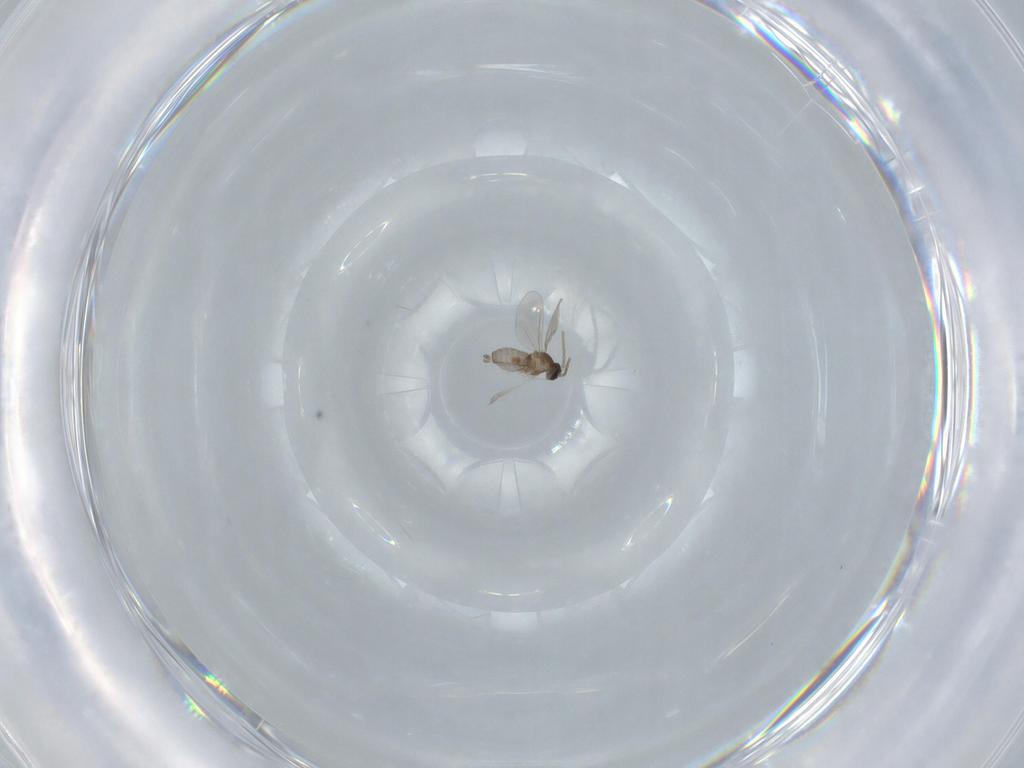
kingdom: Animalia
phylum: Arthropoda
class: Insecta
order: Diptera
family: Cecidomyiidae
